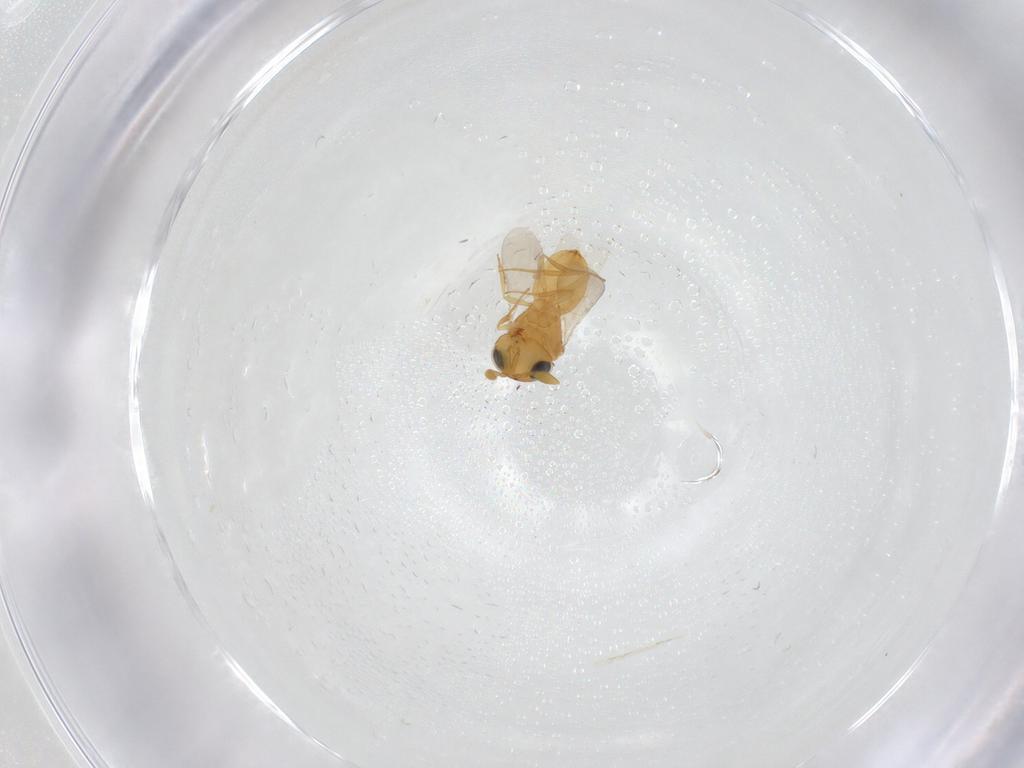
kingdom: Animalia
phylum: Arthropoda
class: Insecta
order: Hymenoptera
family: Scelionidae
